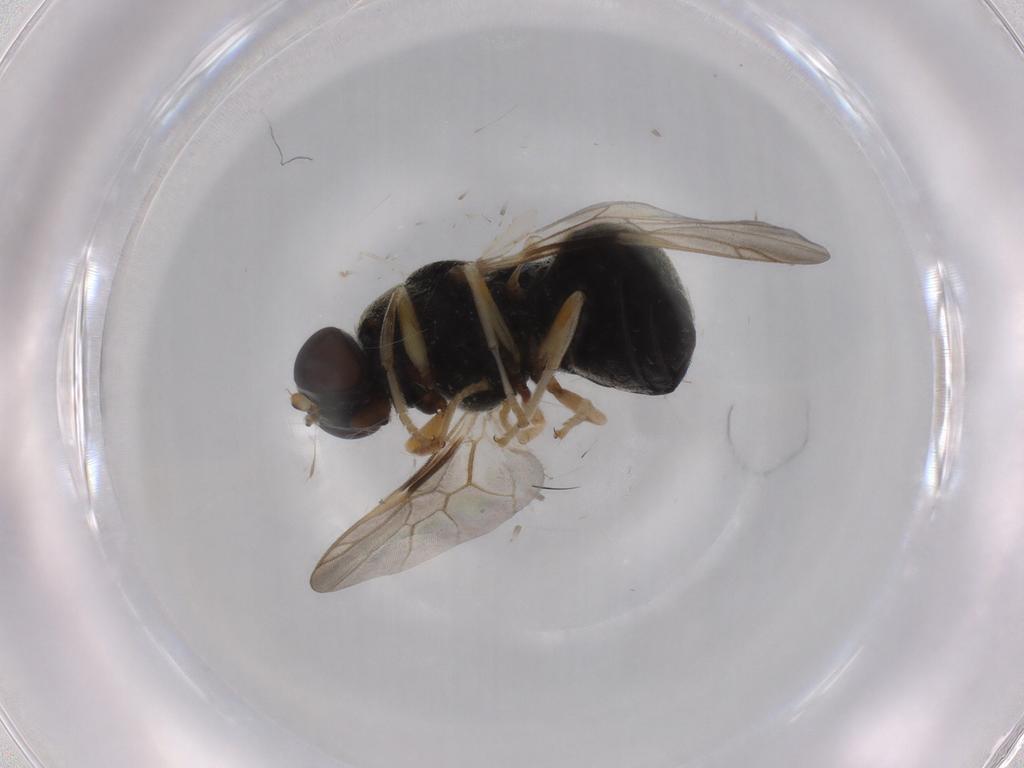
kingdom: Animalia
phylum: Arthropoda
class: Insecta
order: Diptera
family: Stratiomyidae
